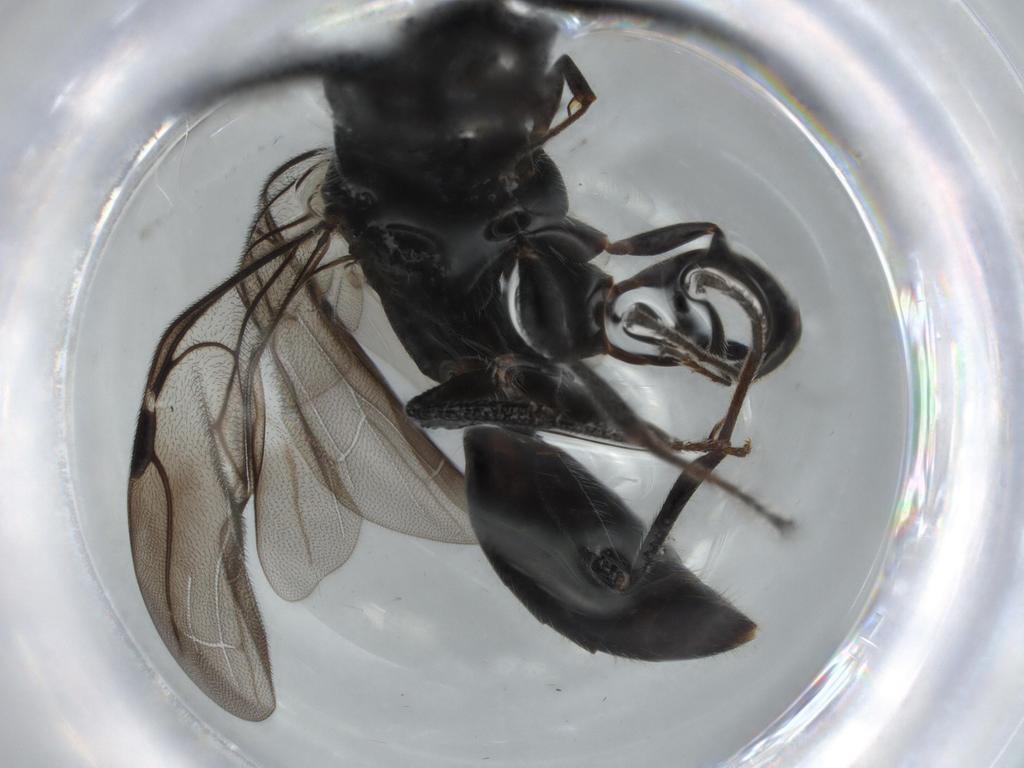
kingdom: Animalia
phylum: Arthropoda
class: Insecta
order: Hymenoptera
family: Bethylidae
